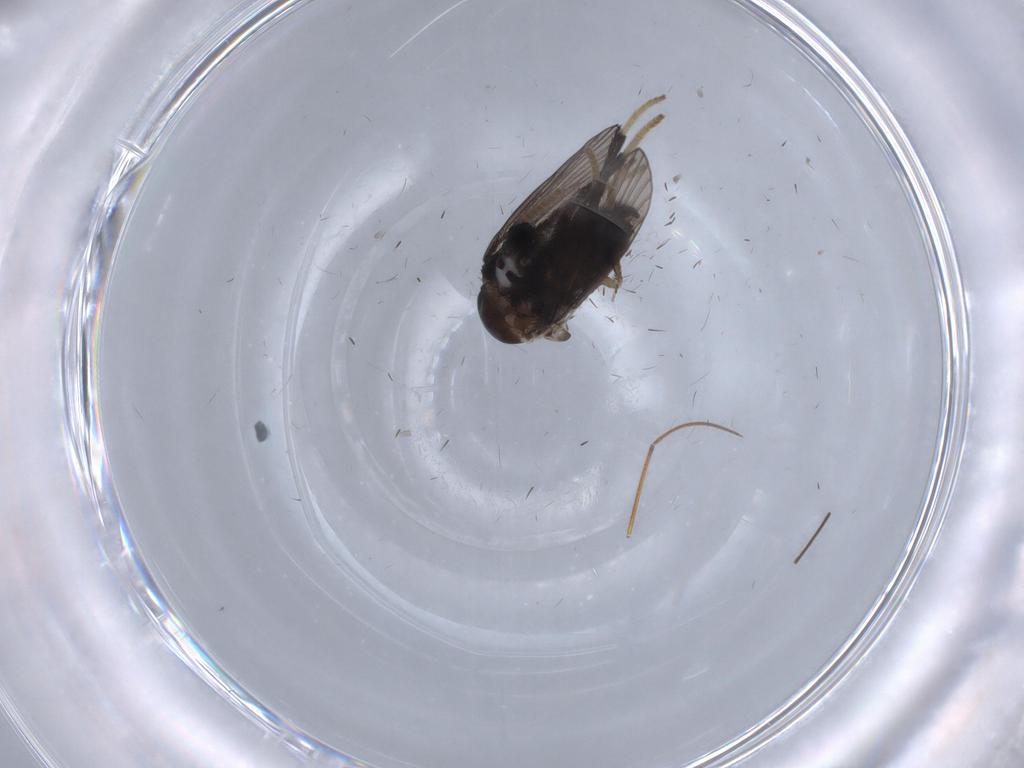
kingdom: Animalia
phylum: Arthropoda
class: Insecta
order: Diptera
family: Psychodidae
